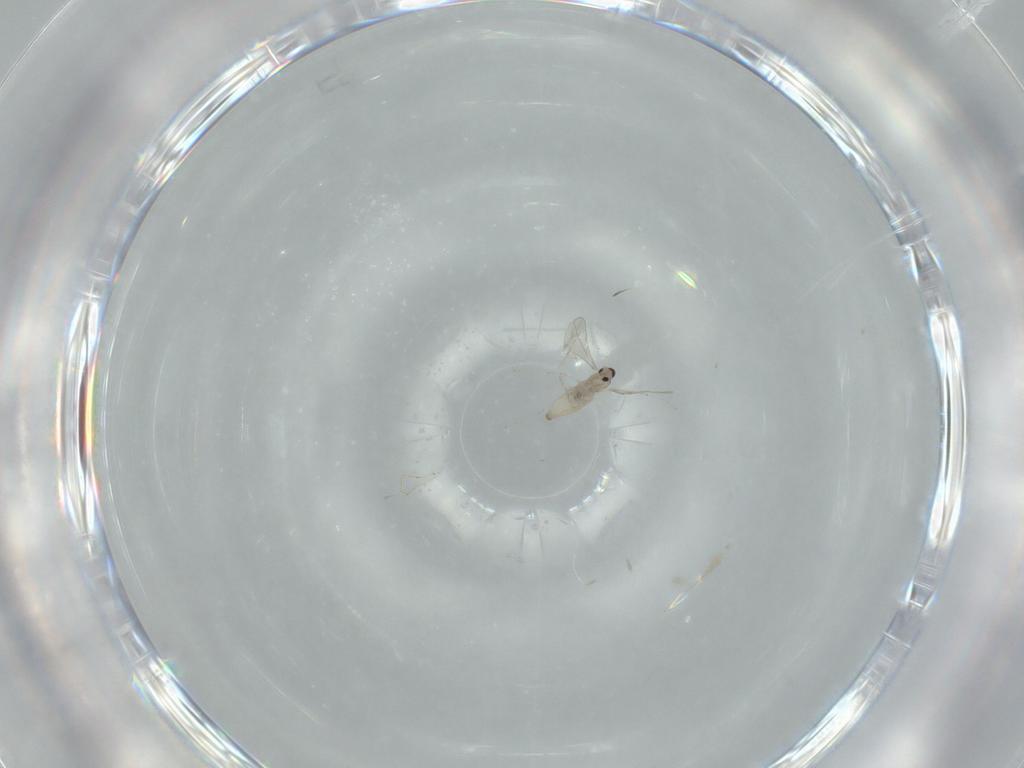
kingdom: Animalia
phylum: Arthropoda
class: Insecta
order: Diptera
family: Cecidomyiidae
